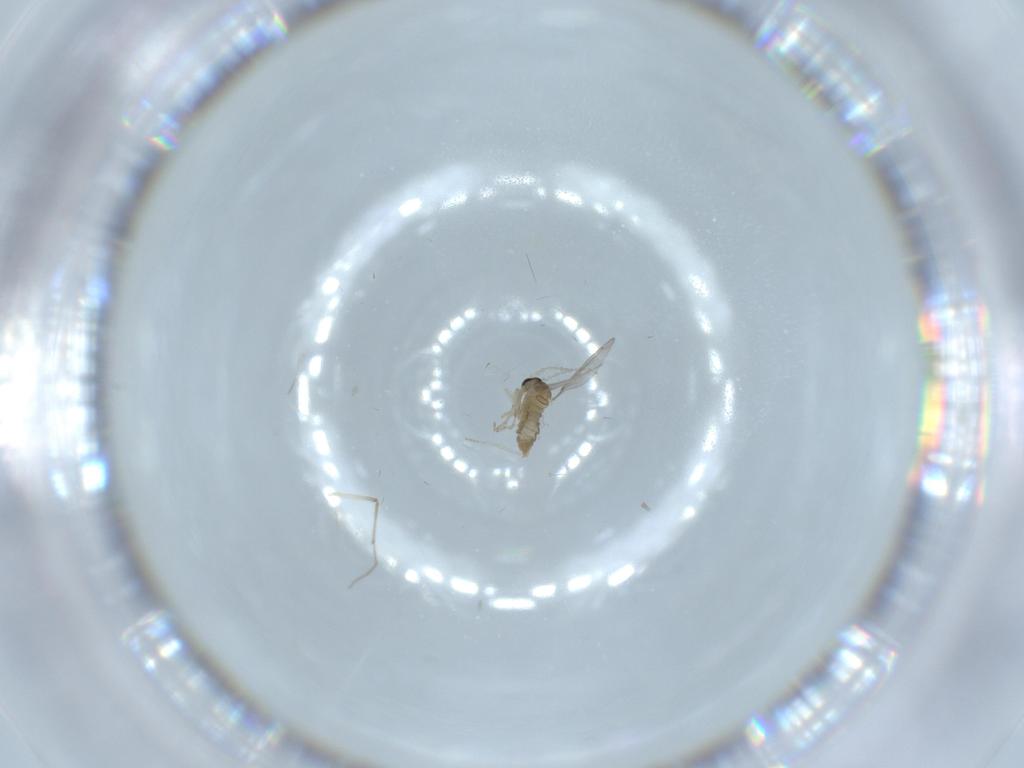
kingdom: Animalia
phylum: Arthropoda
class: Insecta
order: Diptera
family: Cecidomyiidae
